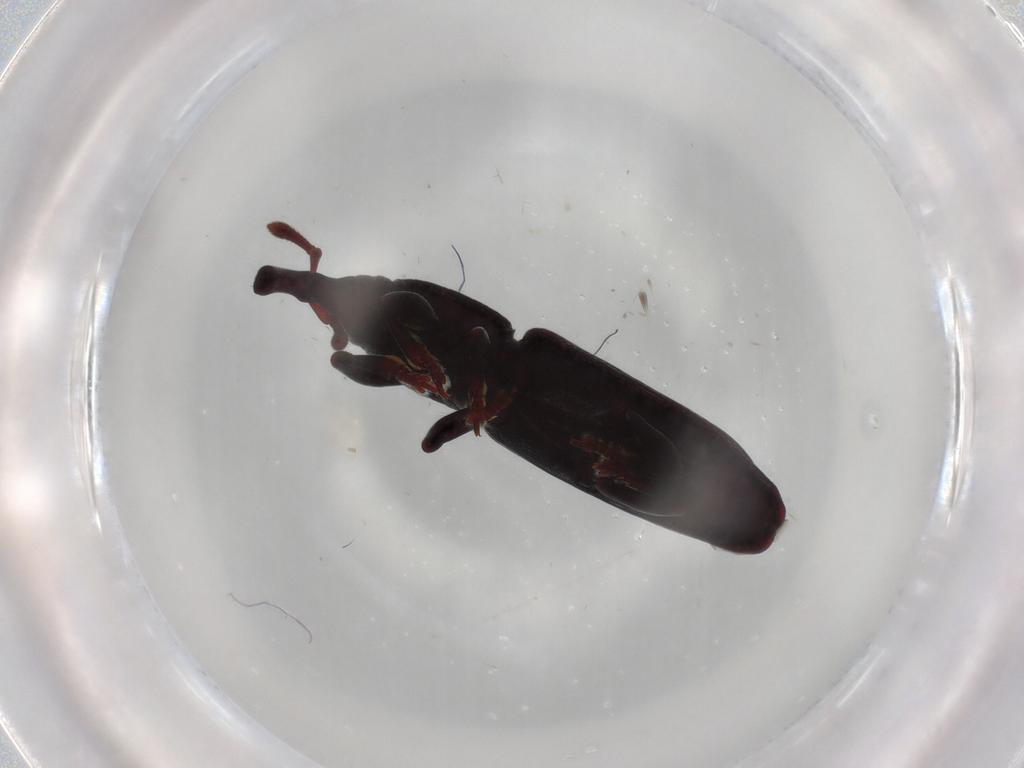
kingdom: Animalia
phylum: Arthropoda
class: Insecta
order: Coleoptera
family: Curculionidae
